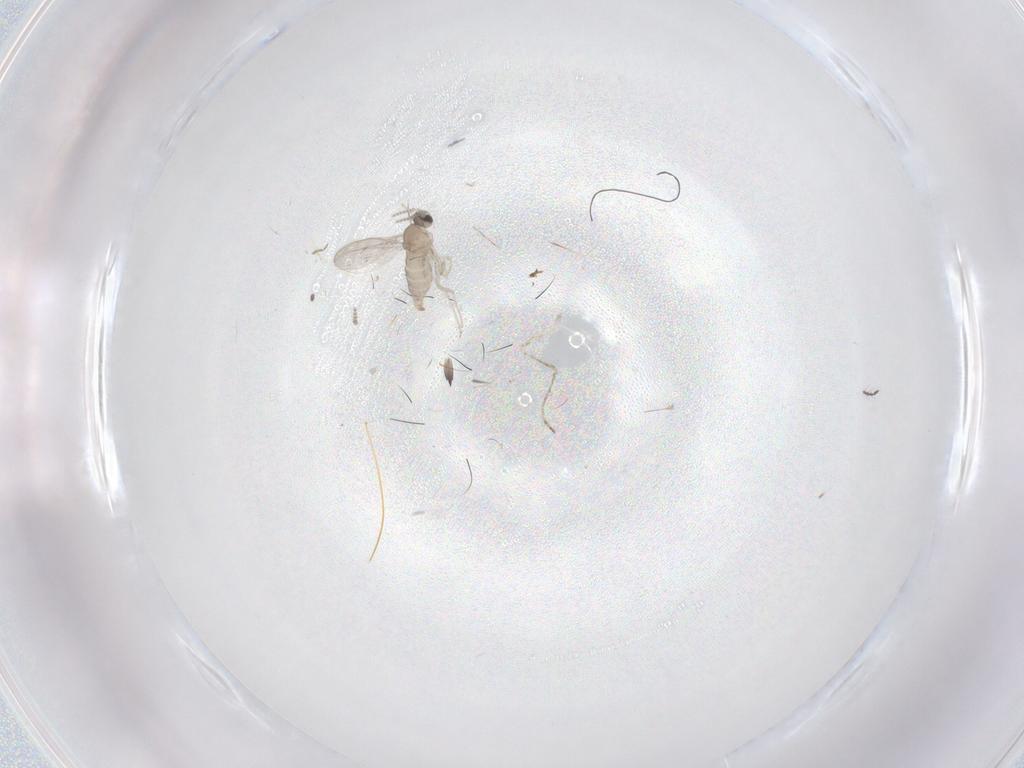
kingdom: Animalia
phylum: Arthropoda
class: Insecta
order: Diptera
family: Cecidomyiidae
